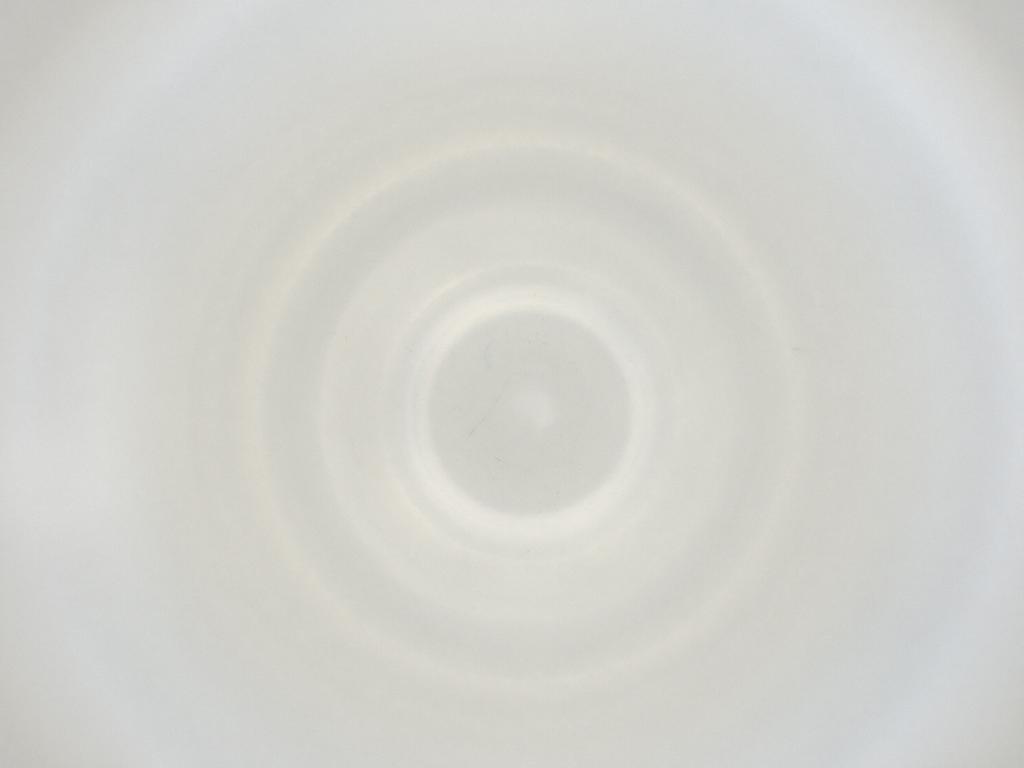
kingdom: Animalia
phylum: Arthropoda
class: Insecta
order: Diptera
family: Cecidomyiidae
